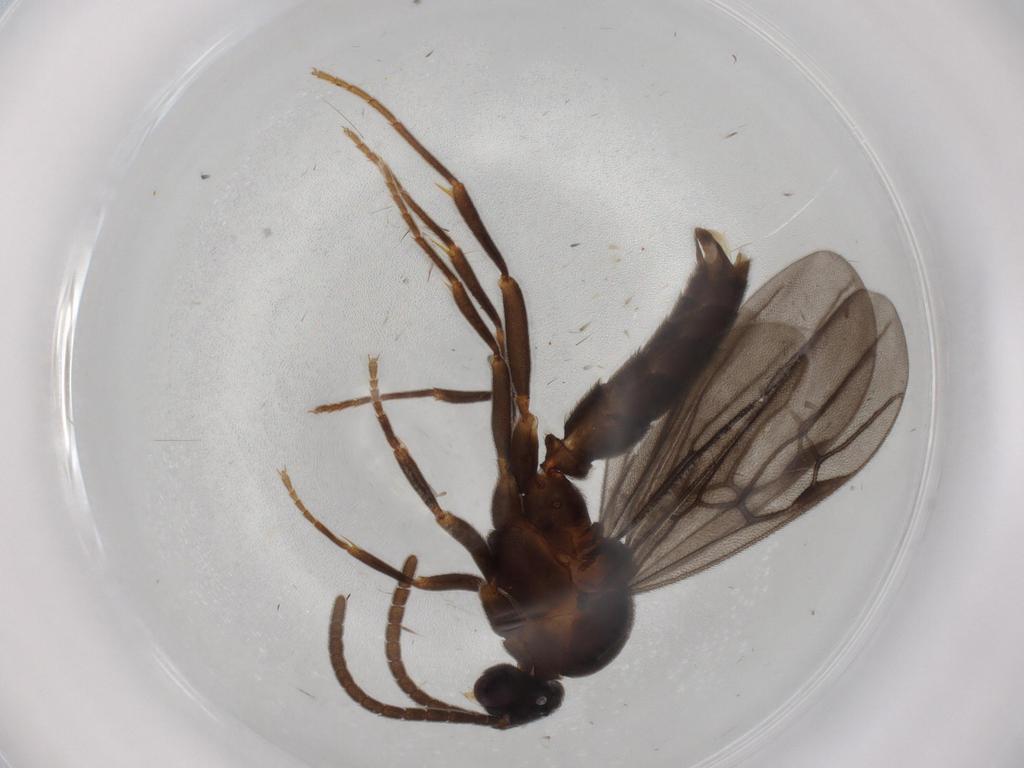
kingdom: Animalia
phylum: Arthropoda
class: Insecta
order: Hymenoptera
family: Formicidae
